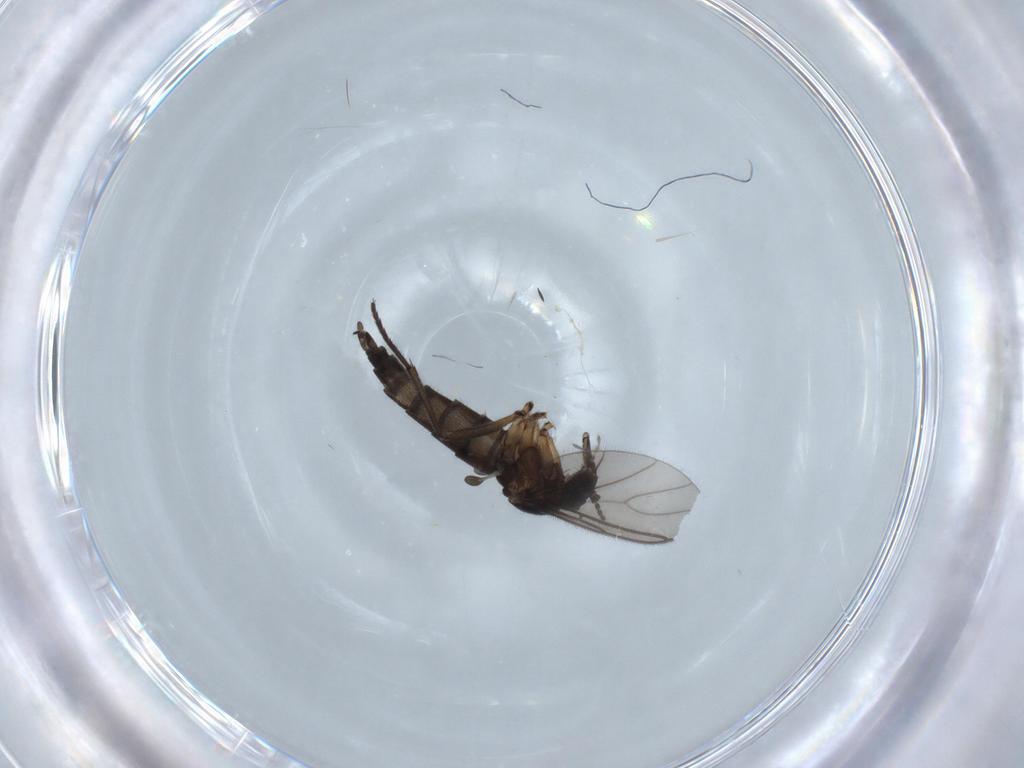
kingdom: Animalia
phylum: Arthropoda
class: Insecta
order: Diptera
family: Sciaridae
